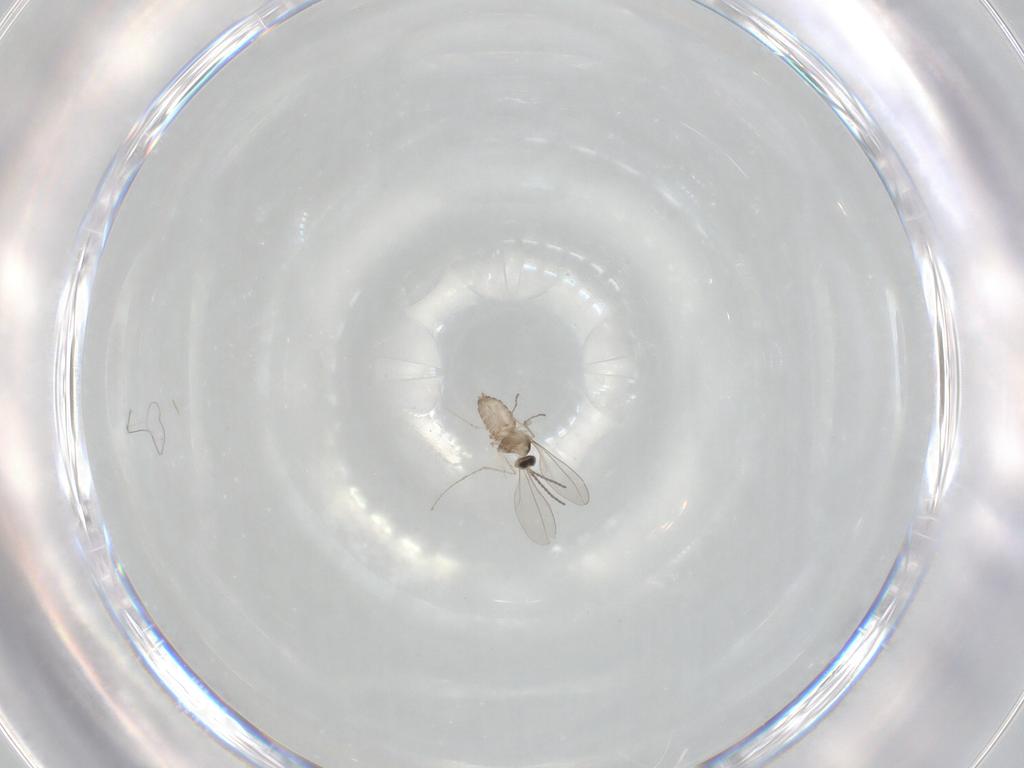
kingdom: Animalia
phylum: Arthropoda
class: Insecta
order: Diptera
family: Cecidomyiidae
